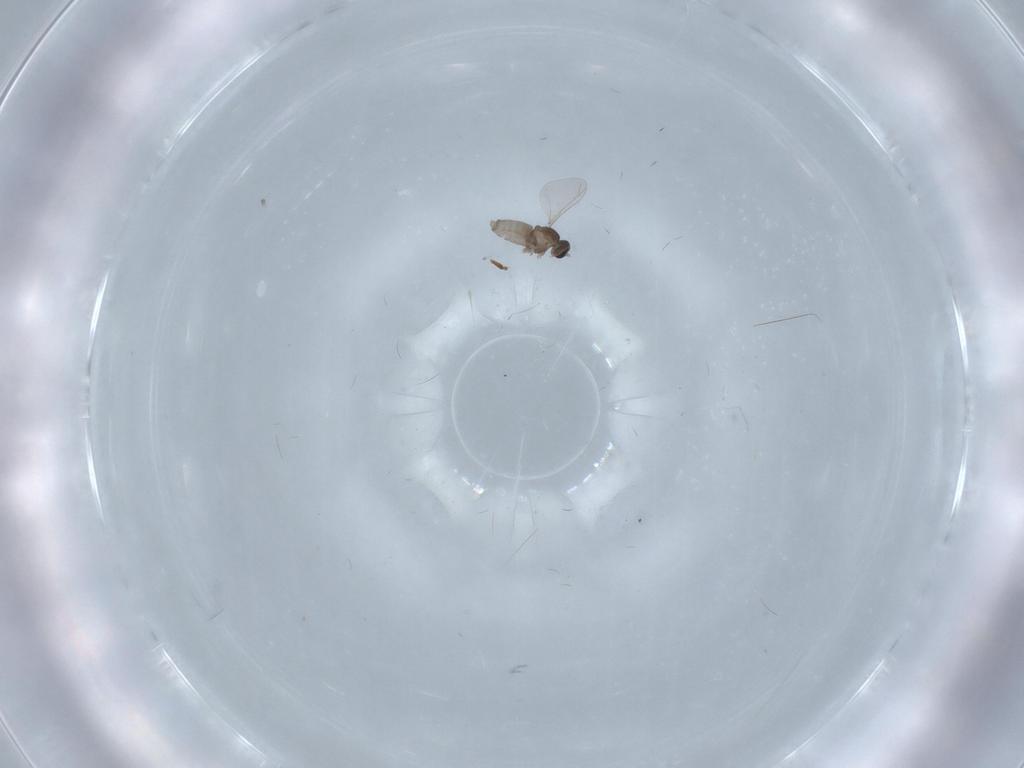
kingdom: Animalia
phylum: Arthropoda
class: Insecta
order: Diptera
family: Cecidomyiidae
